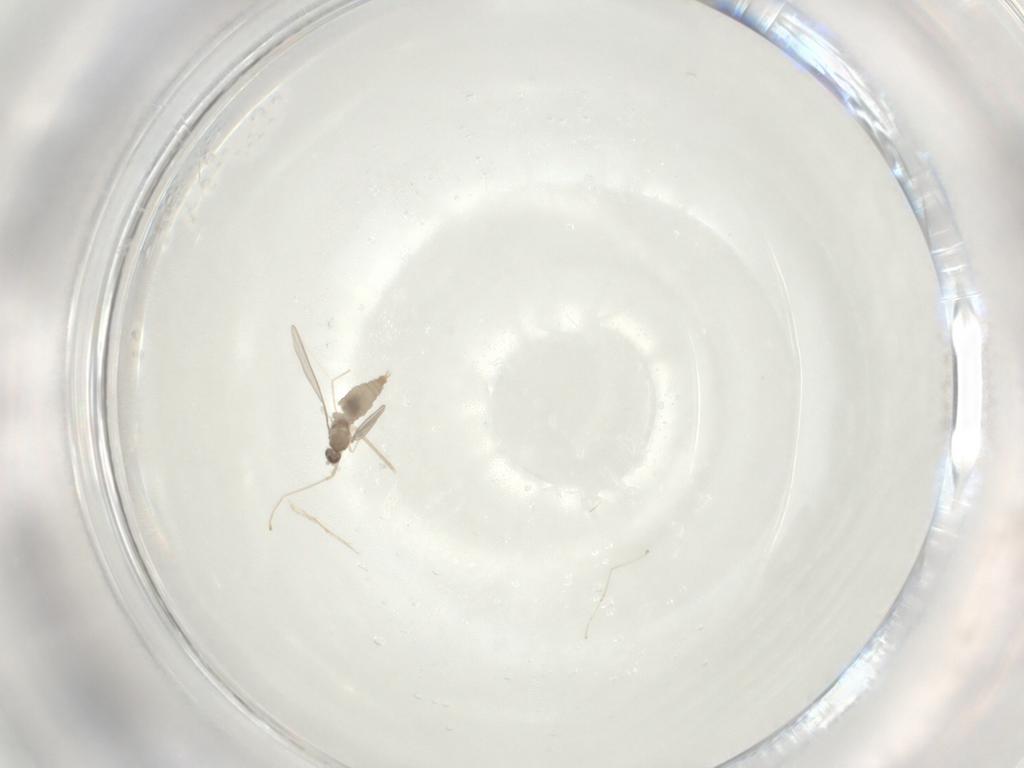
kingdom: Animalia
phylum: Arthropoda
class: Insecta
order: Diptera
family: Cecidomyiidae
